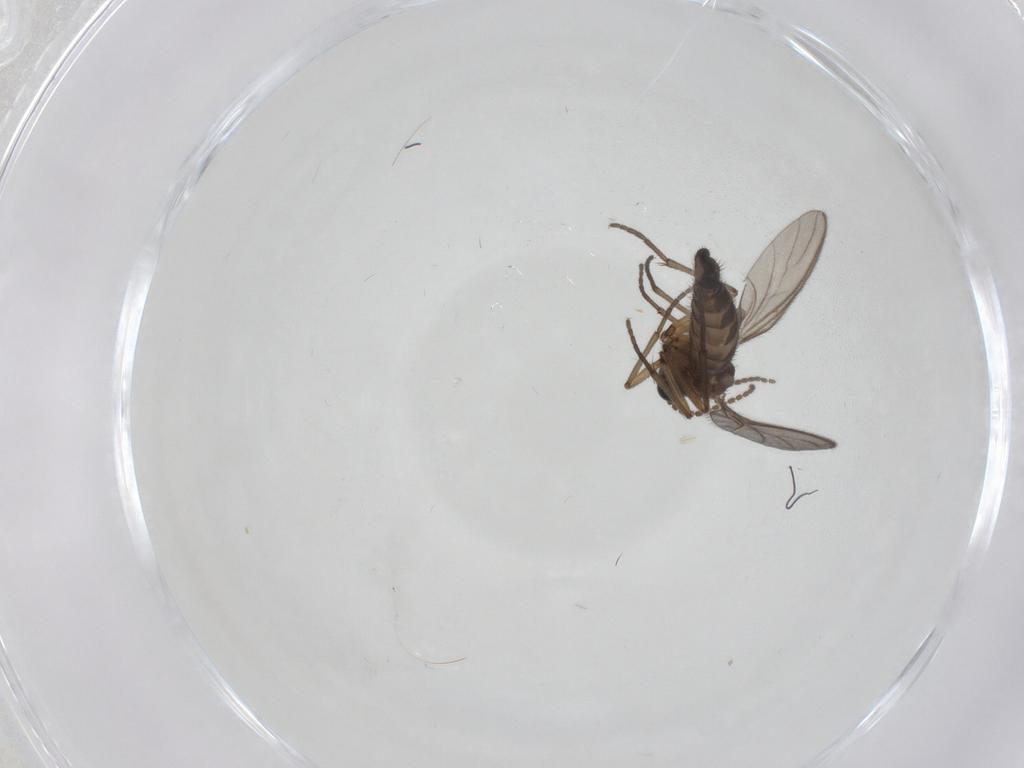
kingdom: Animalia
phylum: Arthropoda
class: Insecta
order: Diptera
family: Sciaridae
